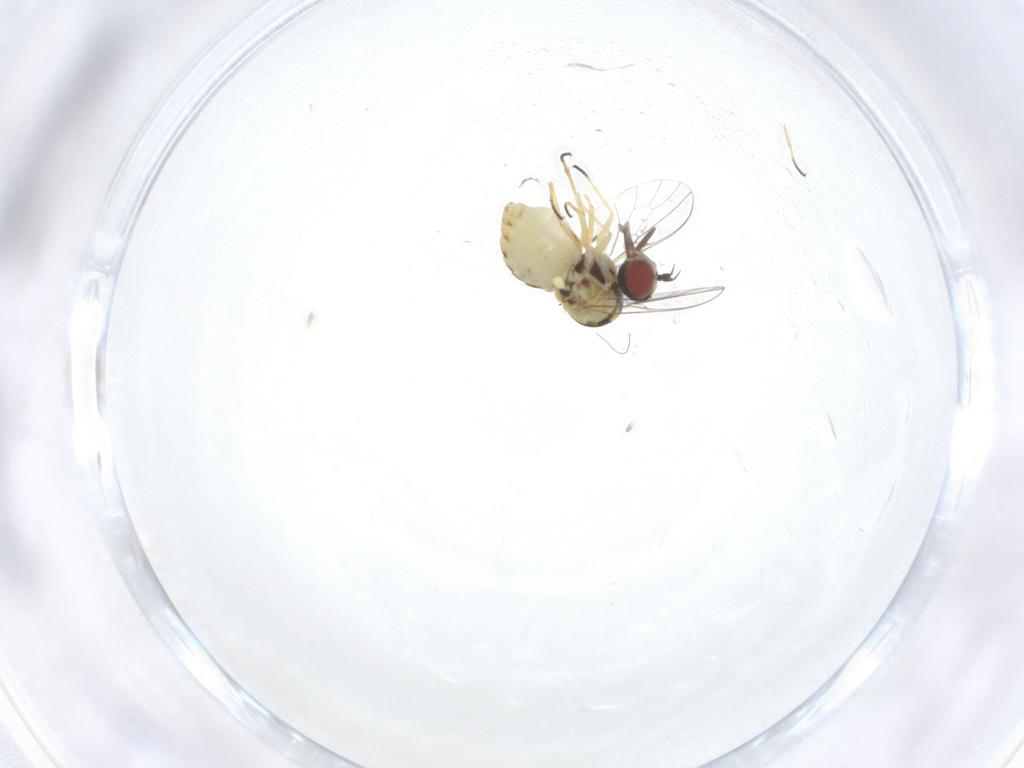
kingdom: Animalia
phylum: Arthropoda
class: Insecta
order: Diptera
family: Mythicomyiidae
